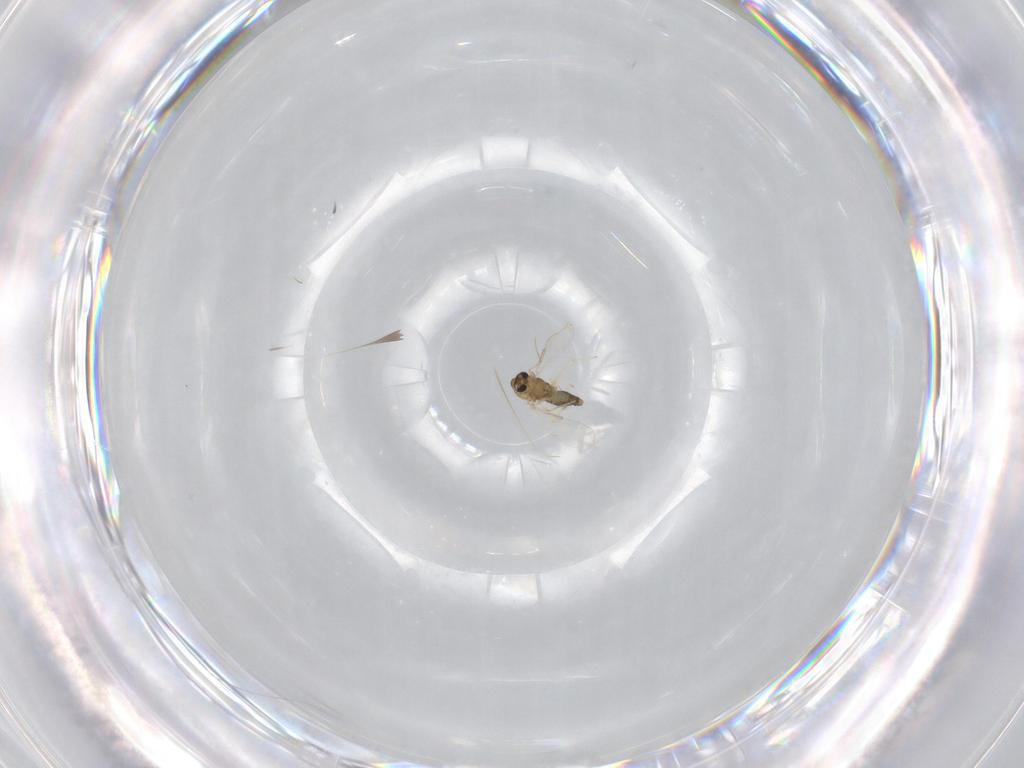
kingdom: Animalia
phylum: Arthropoda
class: Insecta
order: Diptera
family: Chironomidae
